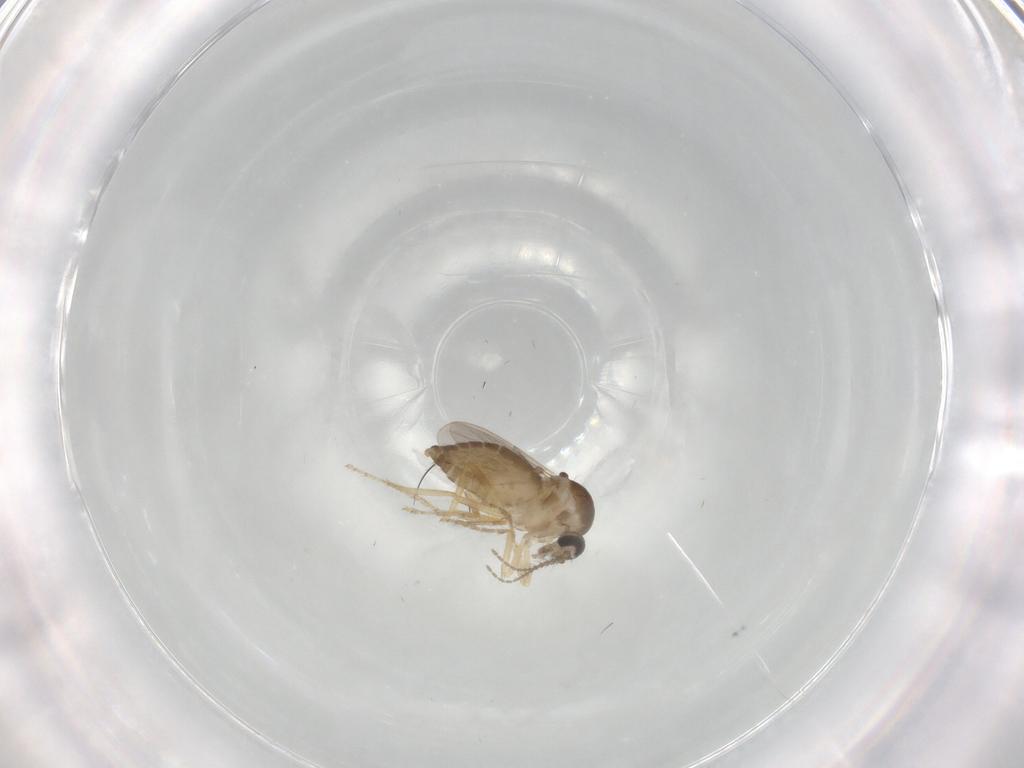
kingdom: Animalia
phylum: Arthropoda
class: Insecta
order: Diptera
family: Ceratopogonidae
